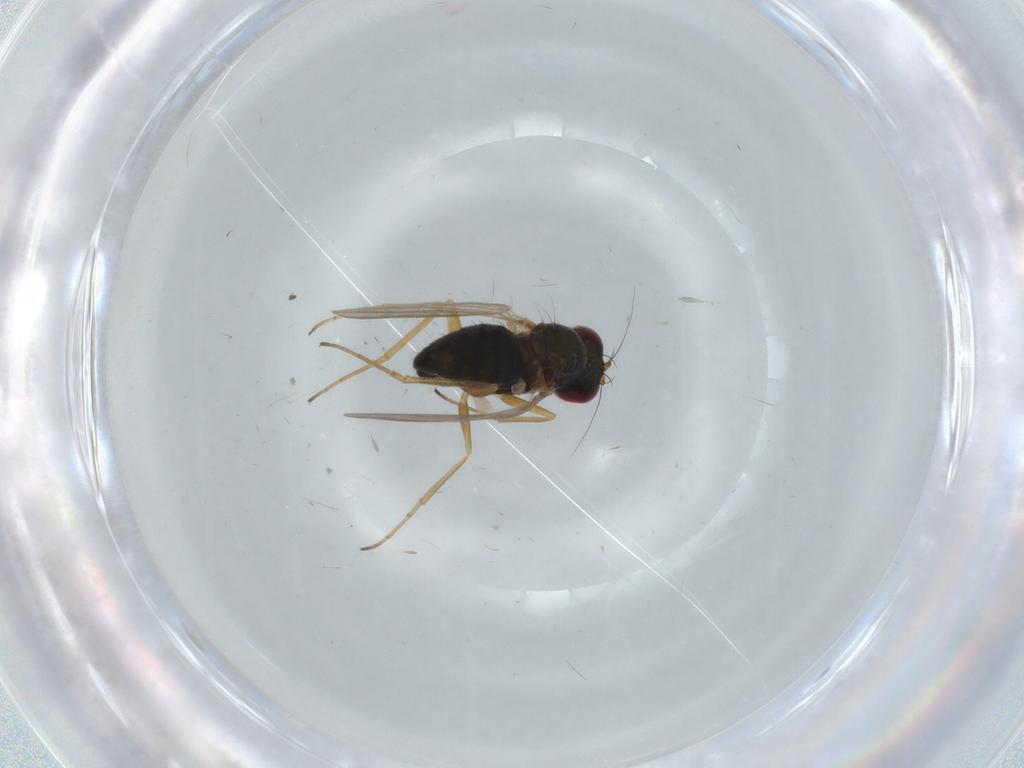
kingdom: Animalia
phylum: Arthropoda
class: Insecta
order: Diptera
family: Dolichopodidae
